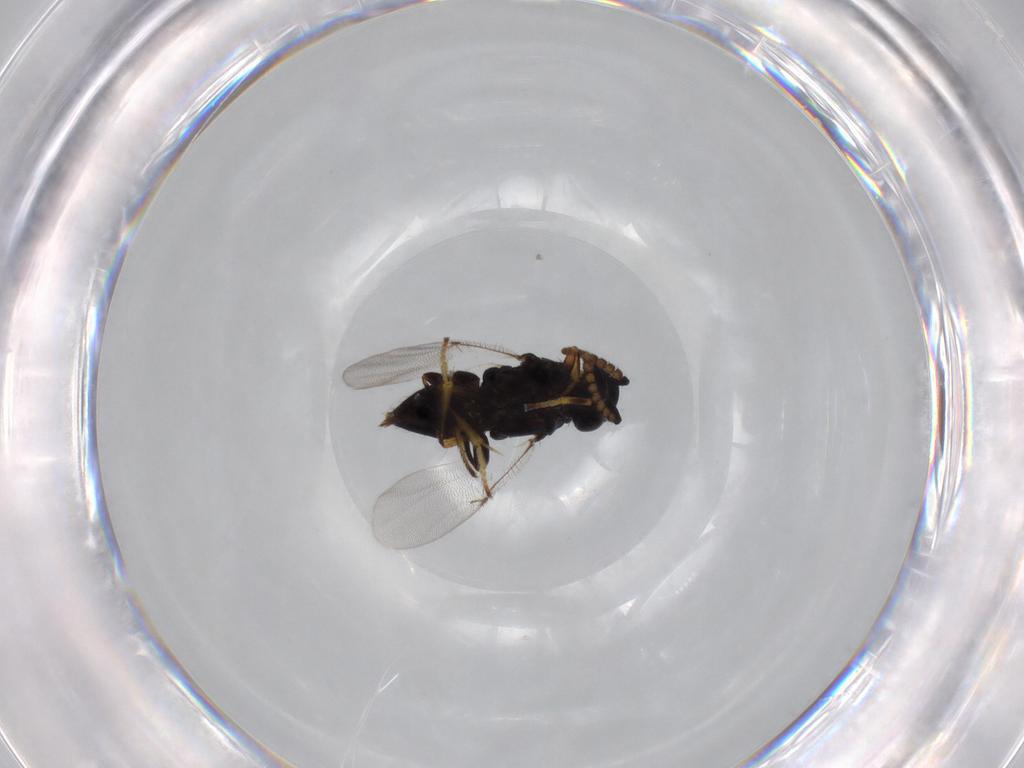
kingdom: Animalia
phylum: Arthropoda
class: Insecta
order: Hymenoptera
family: Encyrtidae
